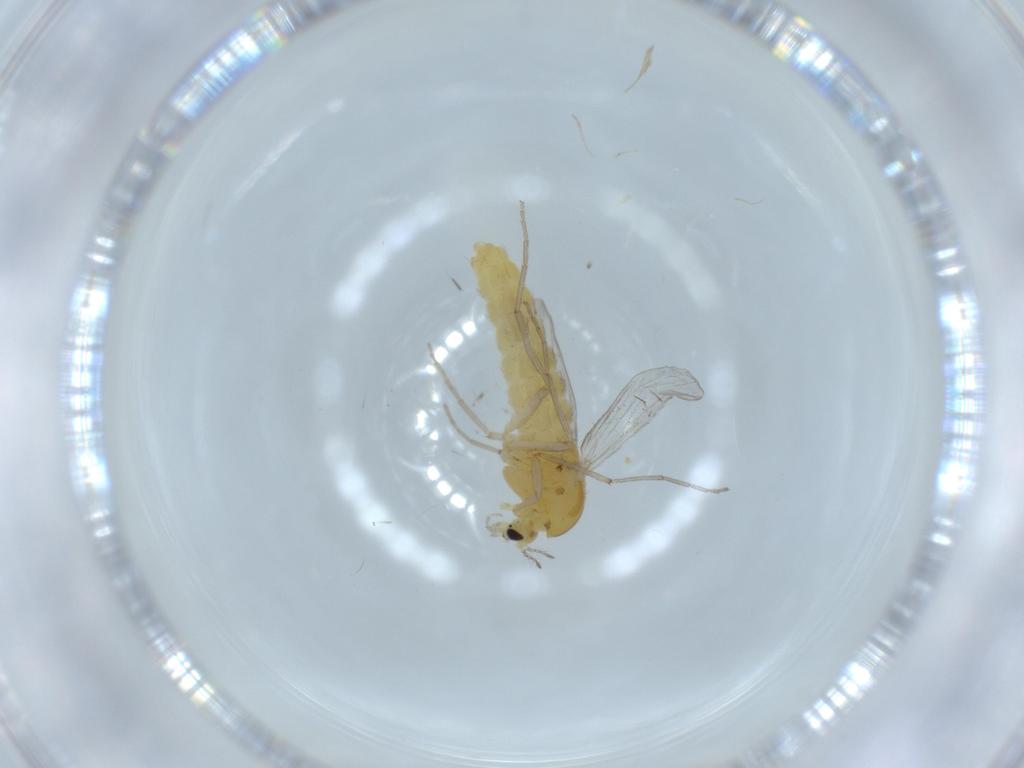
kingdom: Animalia
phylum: Arthropoda
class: Insecta
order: Diptera
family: Chironomidae
